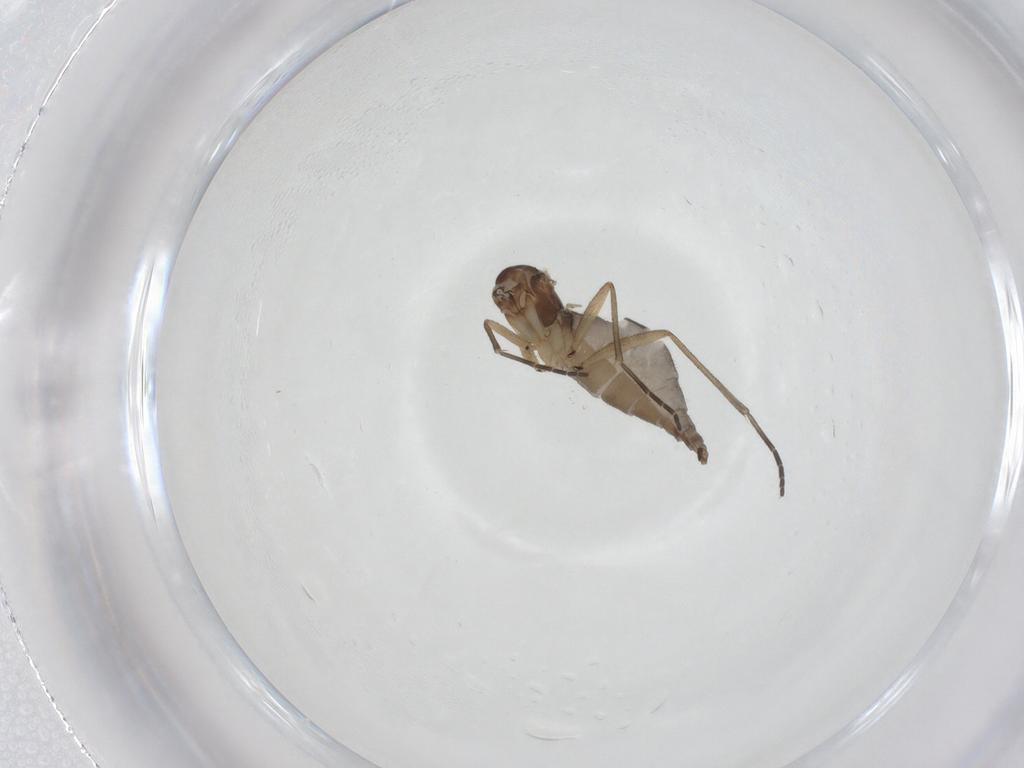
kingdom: Animalia
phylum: Arthropoda
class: Insecta
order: Diptera
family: Sciaridae
